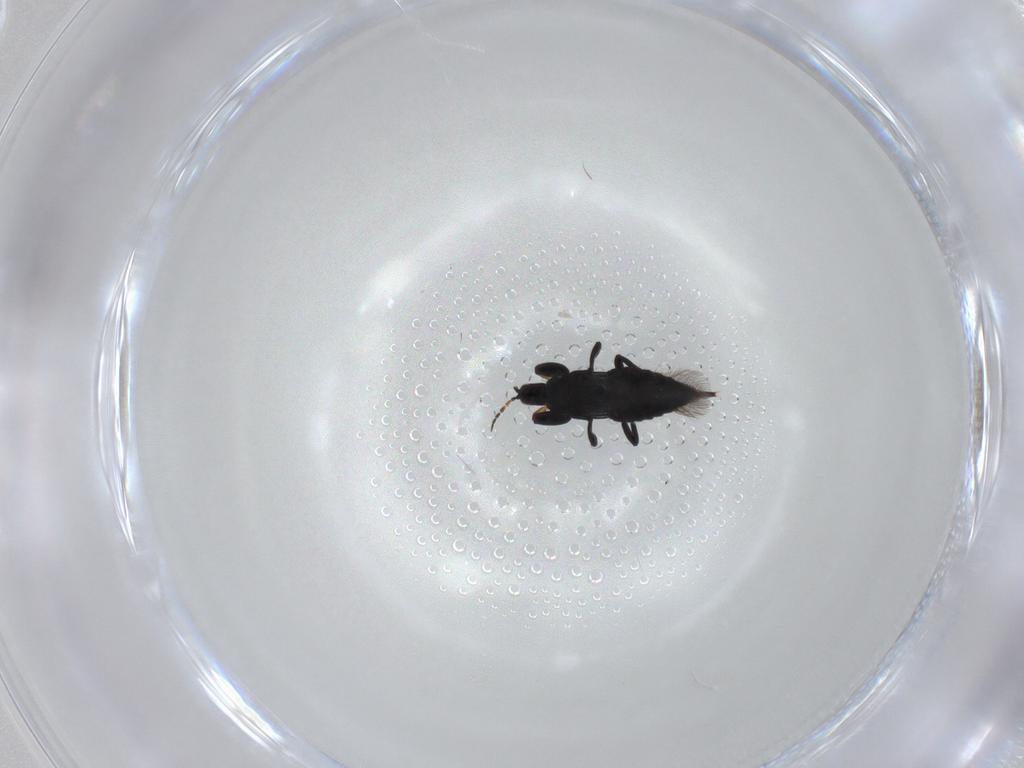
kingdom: Animalia
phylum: Arthropoda
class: Insecta
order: Thysanoptera
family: Phlaeothripidae
